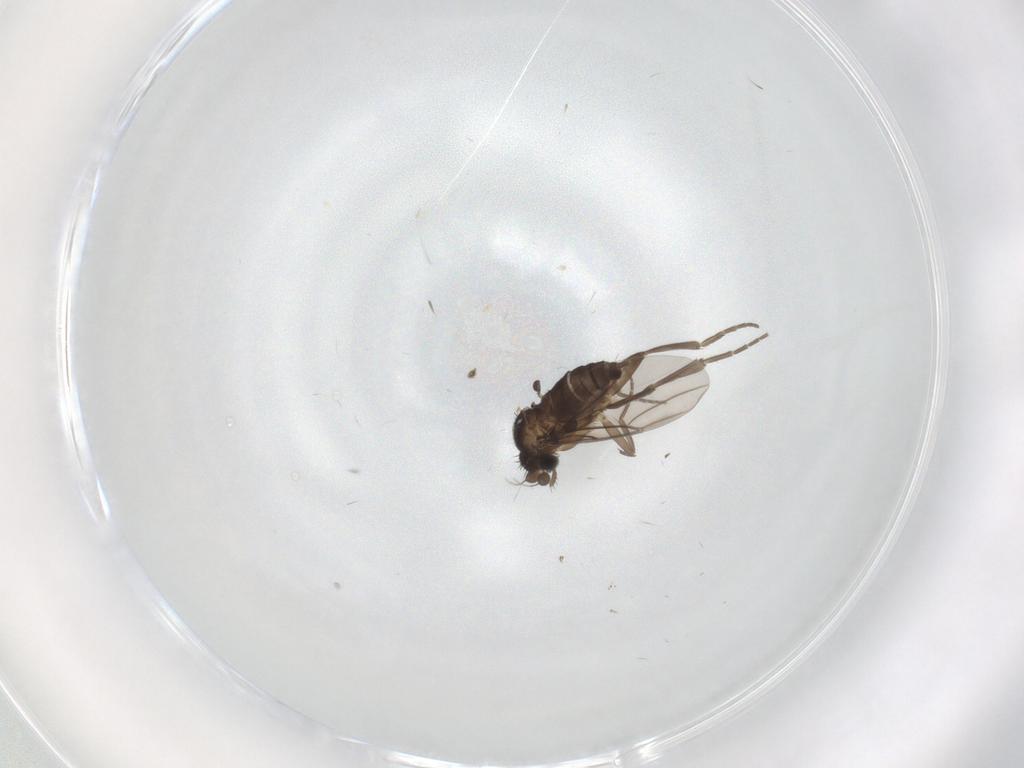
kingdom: Animalia
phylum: Arthropoda
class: Insecta
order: Diptera
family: Phoridae
